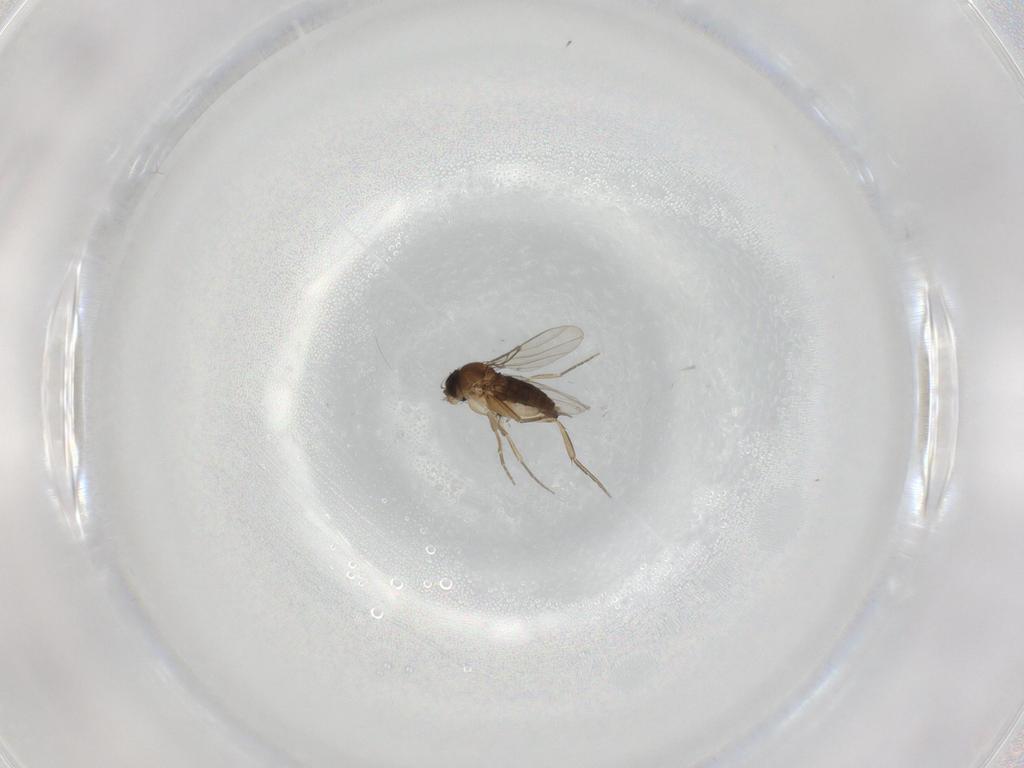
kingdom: Animalia
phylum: Arthropoda
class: Insecta
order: Diptera
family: Phoridae
